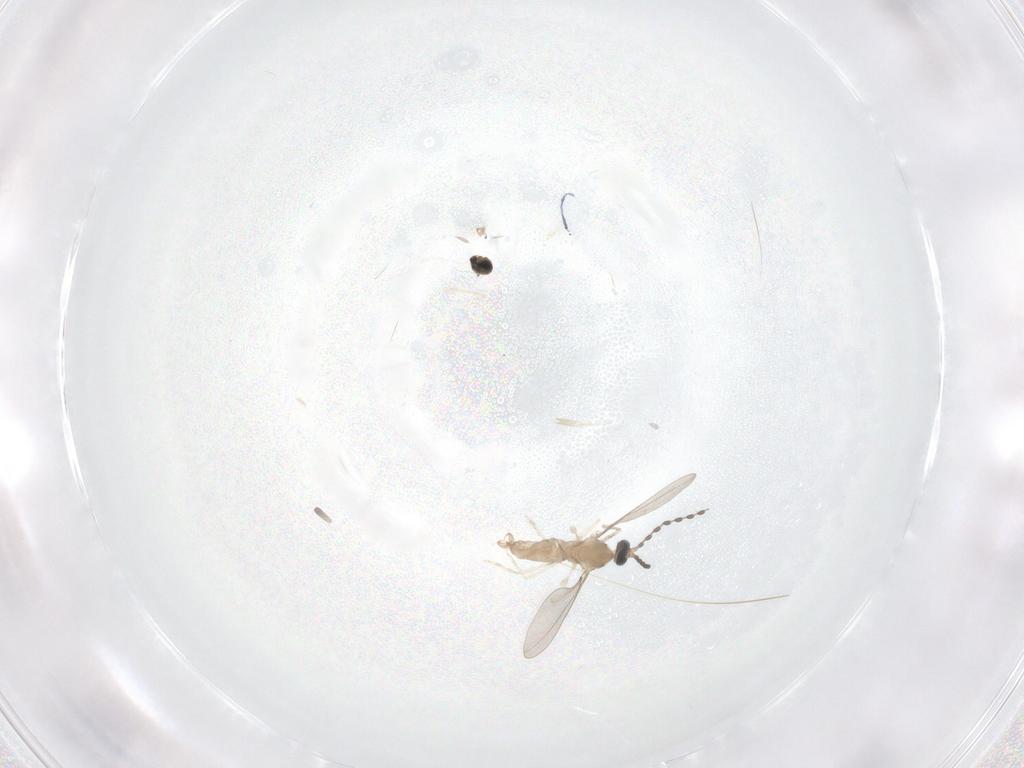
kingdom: Animalia
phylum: Arthropoda
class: Insecta
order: Diptera
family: Cecidomyiidae
